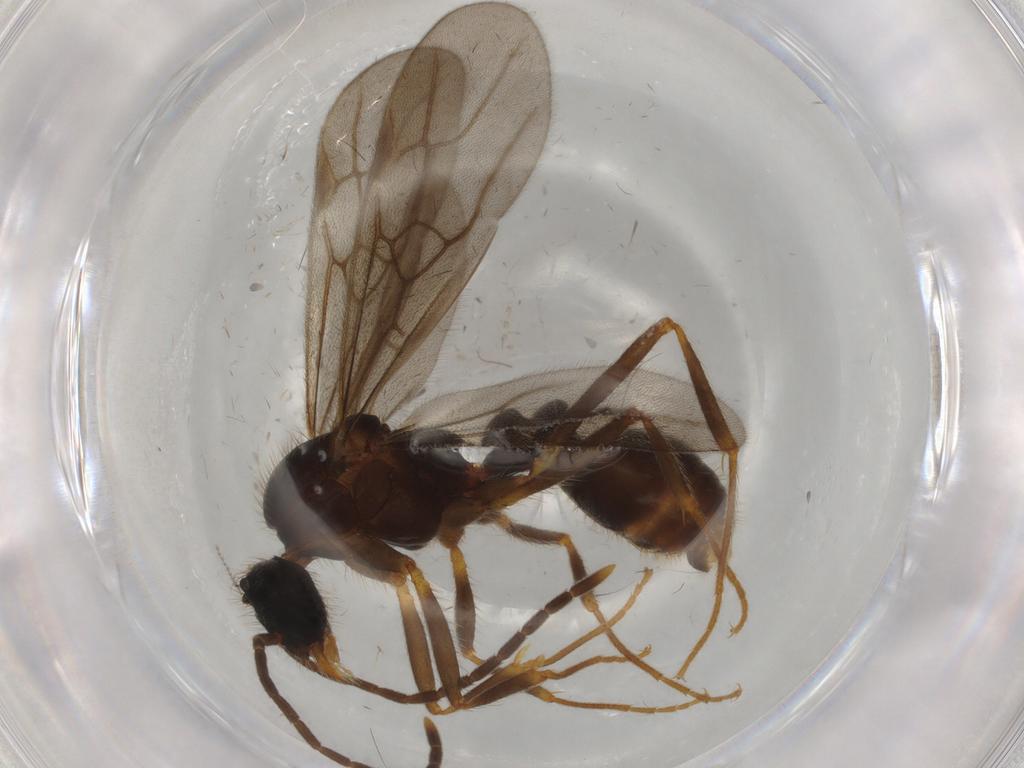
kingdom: Animalia
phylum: Arthropoda
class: Insecta
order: Hymenoptera
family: Formicidae
